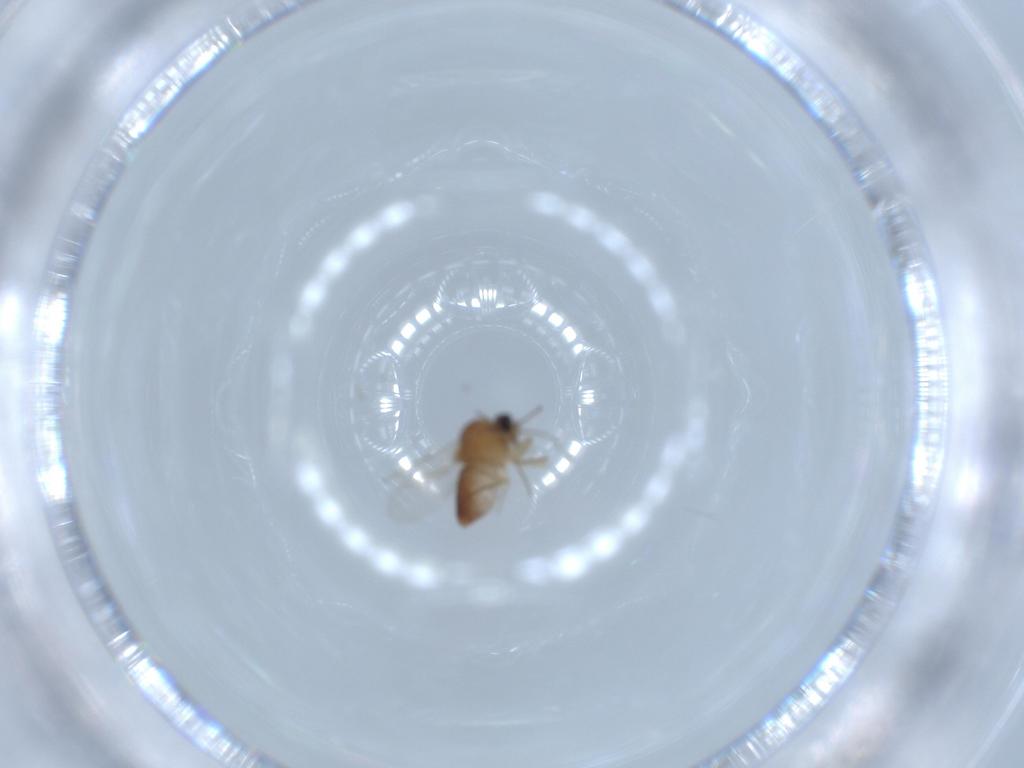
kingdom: Animalia
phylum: Arthropoda
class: Insecta
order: Diptera
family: Ceratopogonidae
